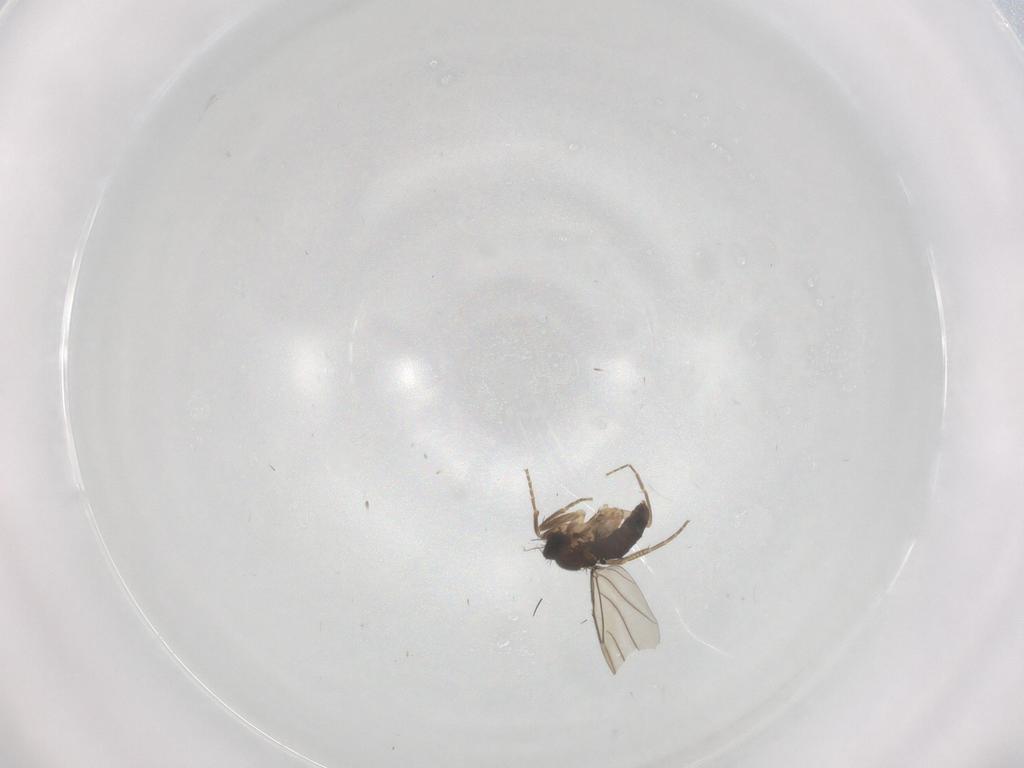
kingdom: Animalia
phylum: Arthropoda
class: Insecta
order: Diptera
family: Phoridae
